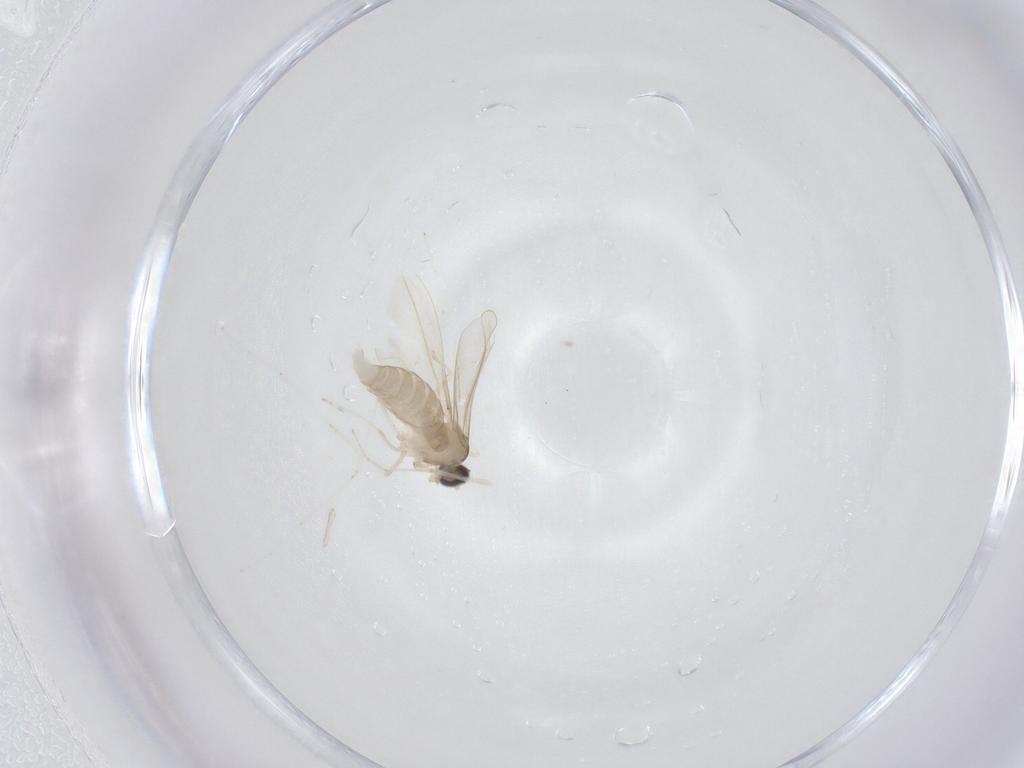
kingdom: Animalia
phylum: Arthropoda
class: Insecta
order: Diptera
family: Cecidomyiidae
